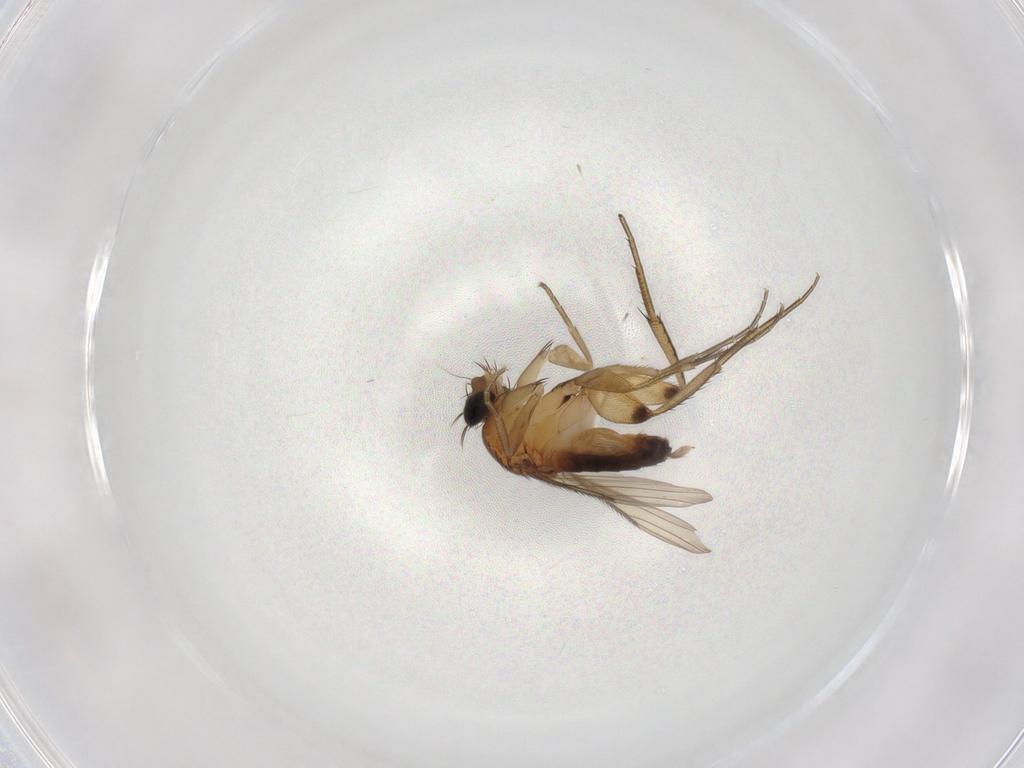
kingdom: Animalia
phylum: Arthropoda
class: Insecta
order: Diptera
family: Phoridae
